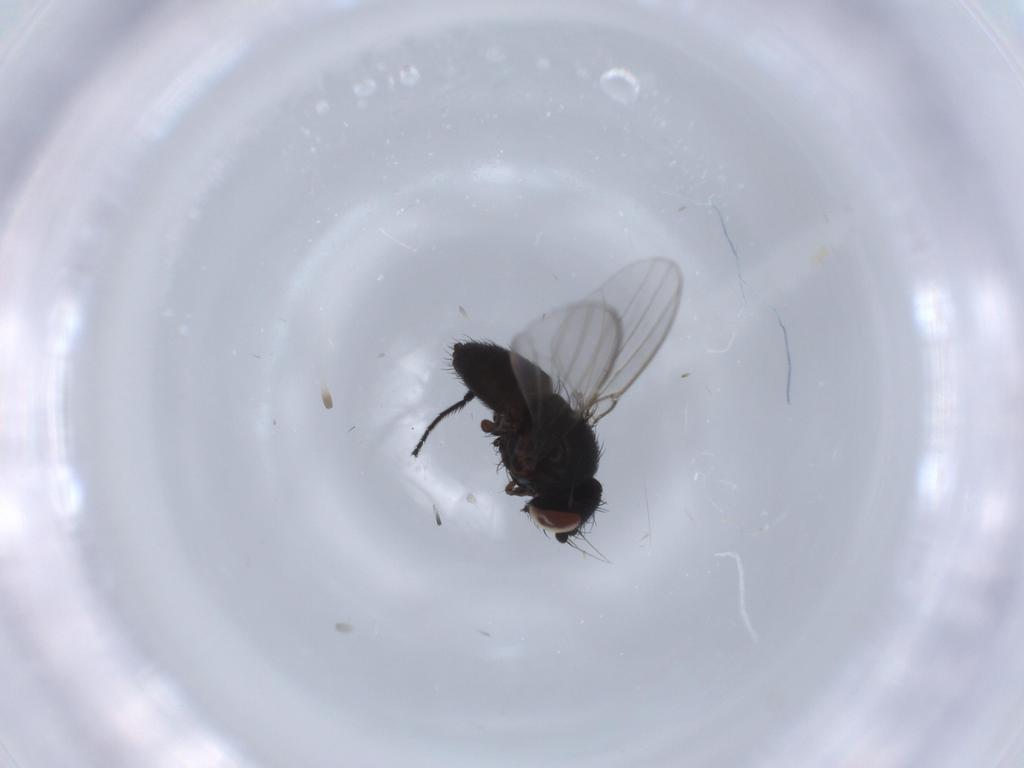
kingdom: Animalia
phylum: Arthropoda
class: Insecta
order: Diptera
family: Milichiidae
